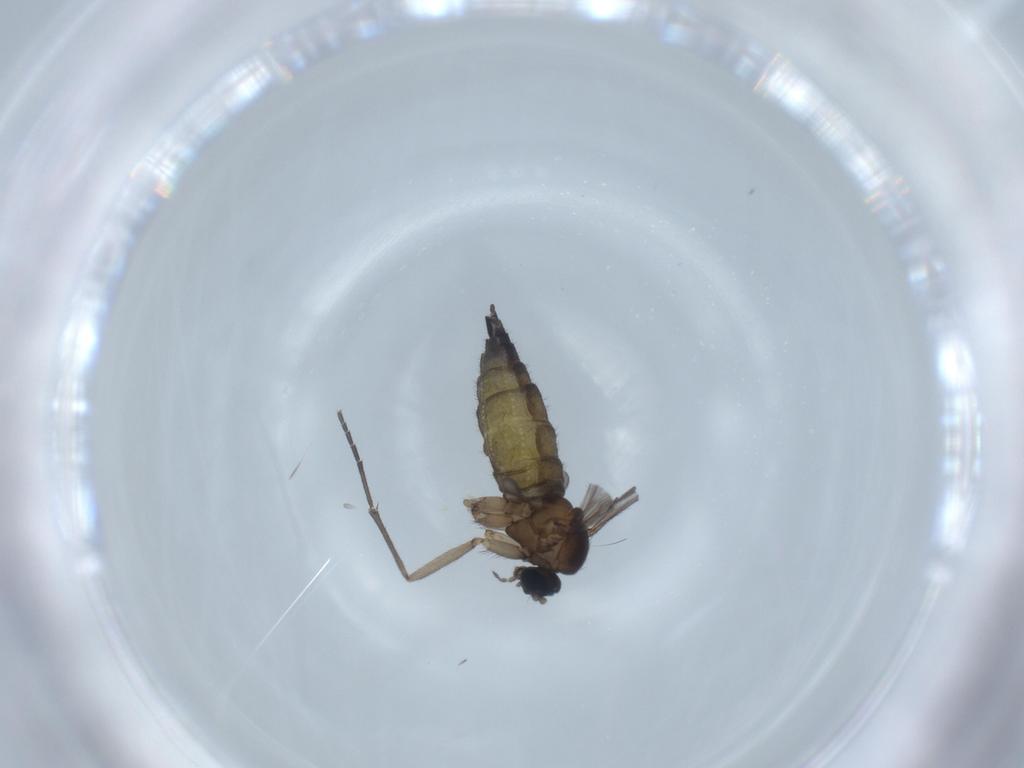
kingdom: Animalia
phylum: Arthropoda
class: Insecta
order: Diptera
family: Sciaridae
